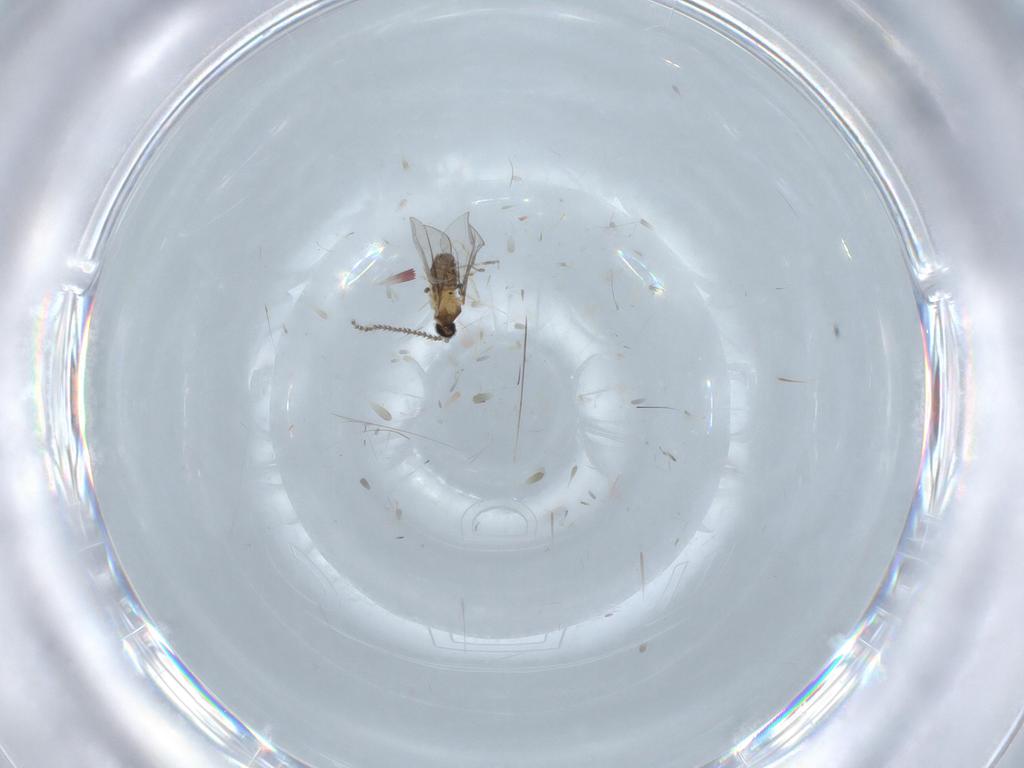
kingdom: Animalia
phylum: Arthropoda
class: Insecta
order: Diptera
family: Cecidomyiidae
